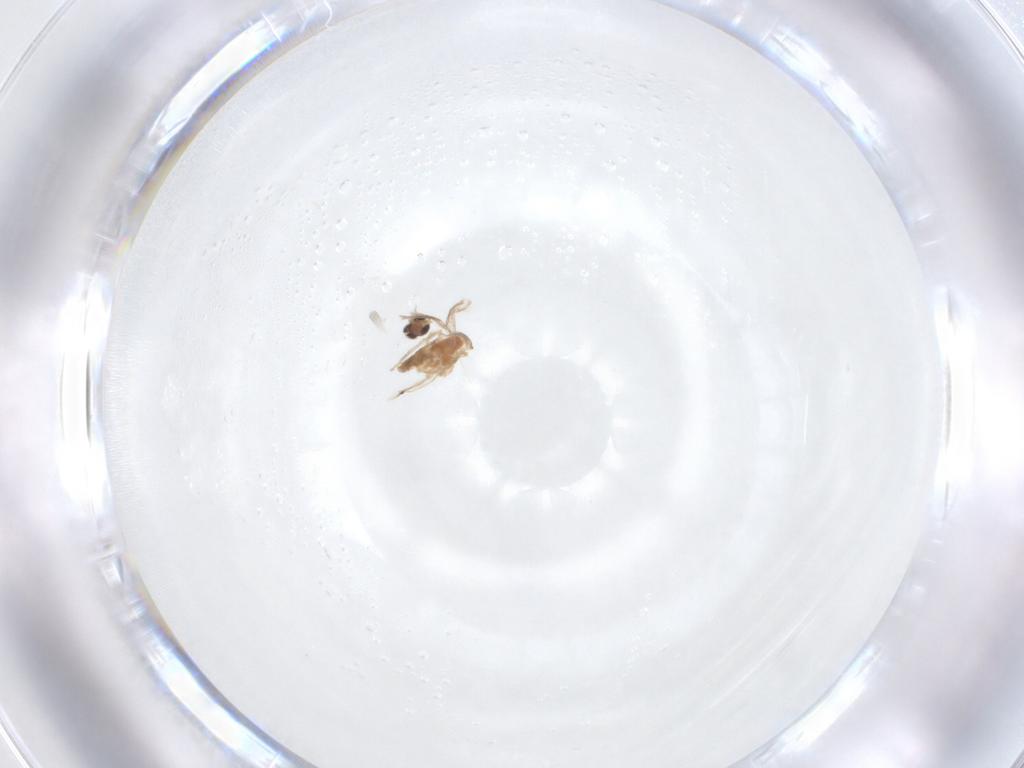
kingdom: Animalia
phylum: Arthropoda
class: Insecta
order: Diptera
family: Cecidomyiidae
